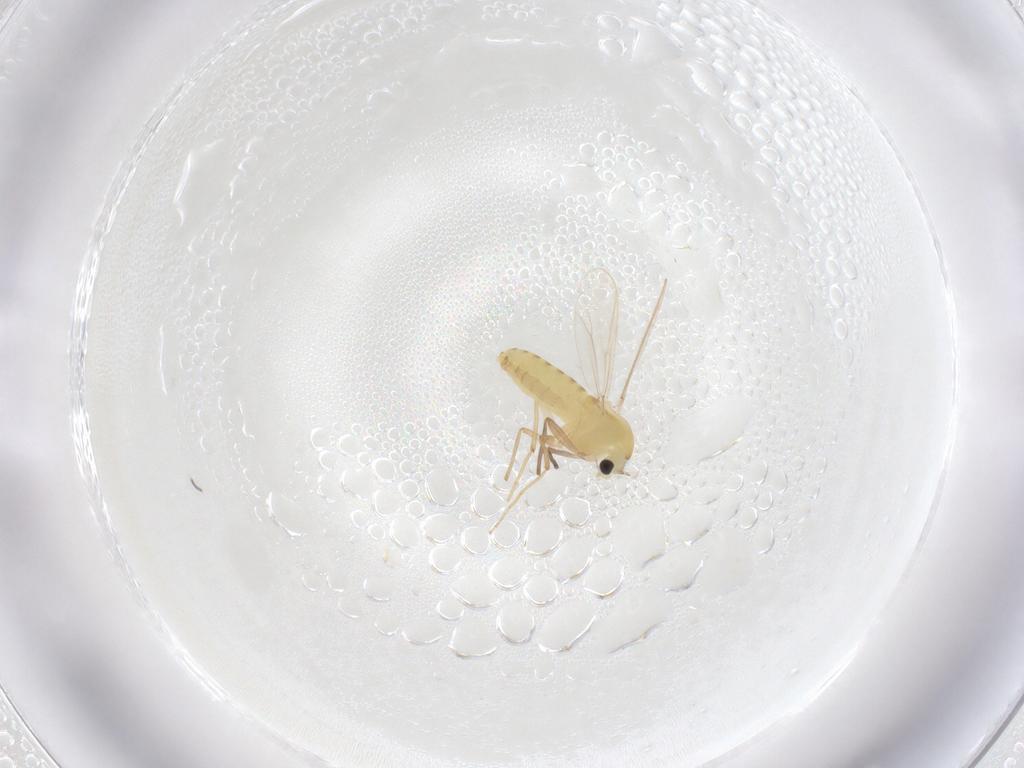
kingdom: Animalia
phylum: Arthropoda
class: Insecta
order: Diptera
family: Chironomidae
